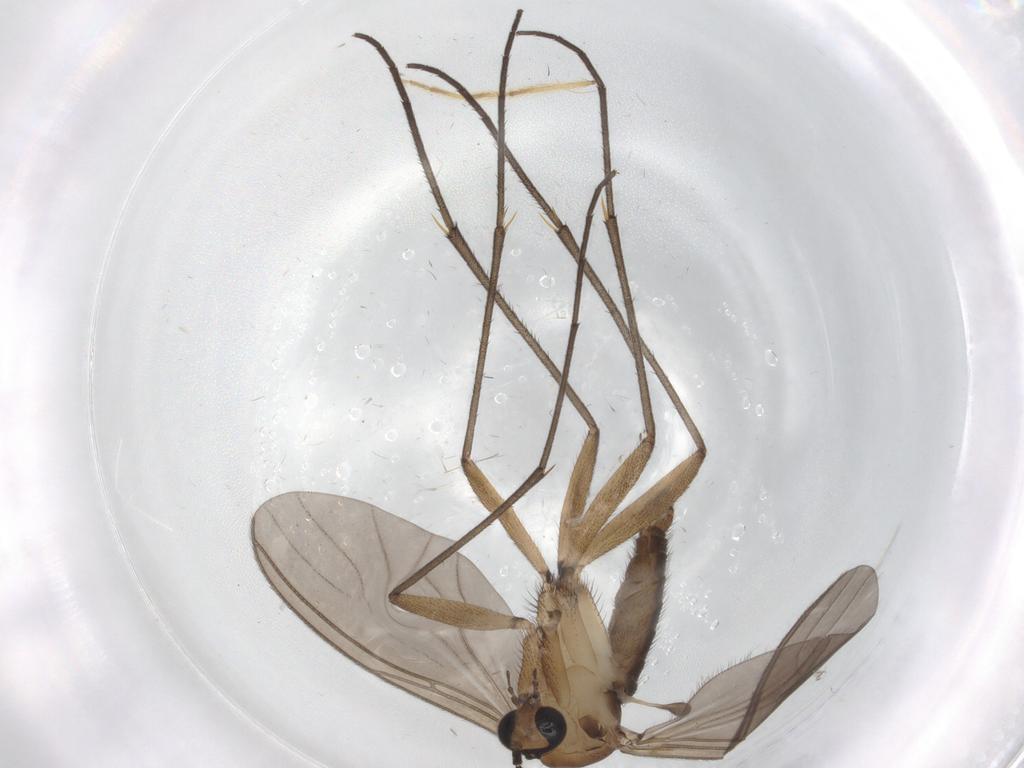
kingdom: Animalia
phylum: Arthropoda
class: Insecta
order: Diptera
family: Chironomidae
